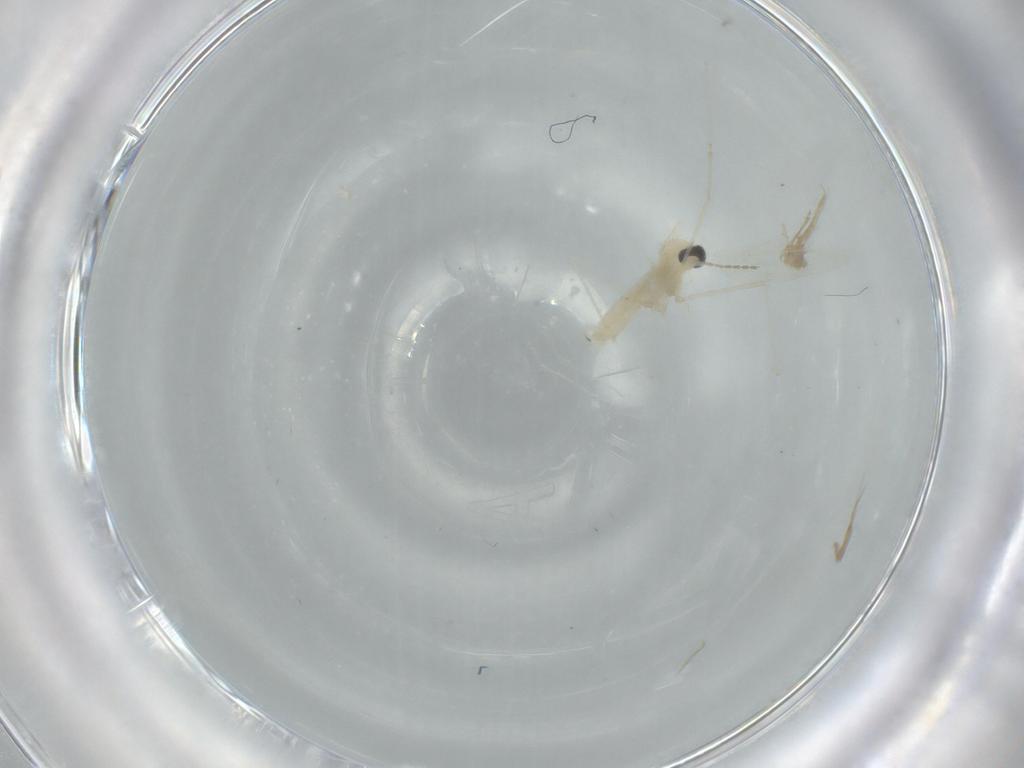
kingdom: Animalia
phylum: Arthropoda
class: Insecta
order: Diptera
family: Cecidomyiidae
